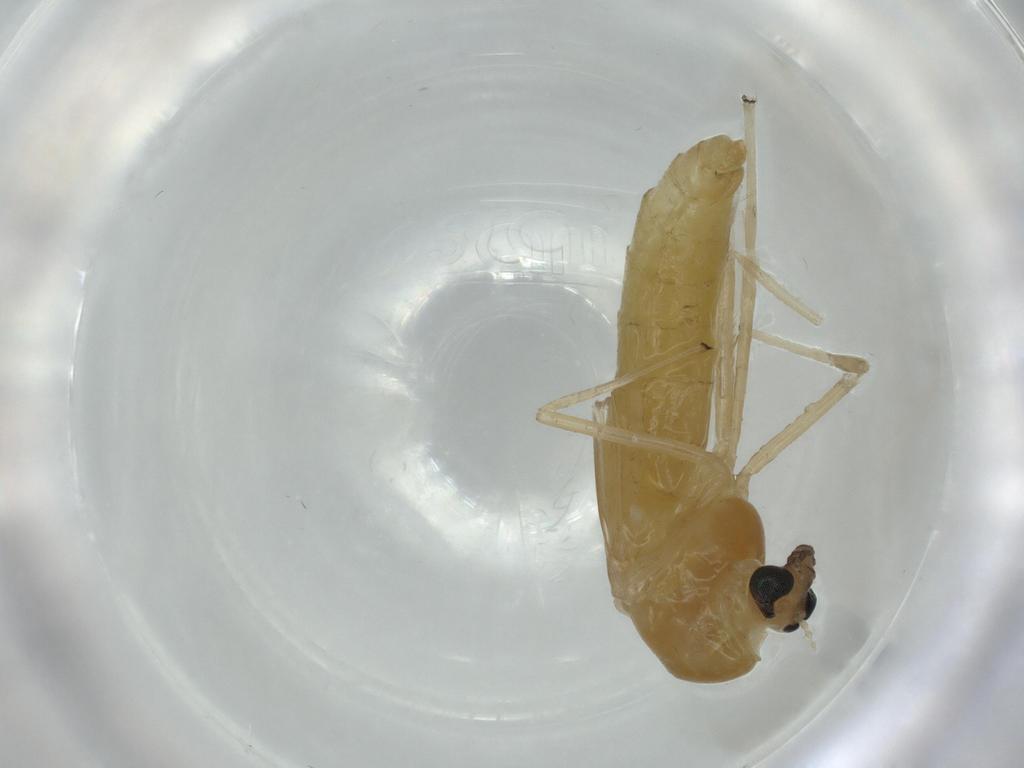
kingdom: Animalia
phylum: Arthropoda
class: Insecta
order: Diptera
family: Chironomidae
